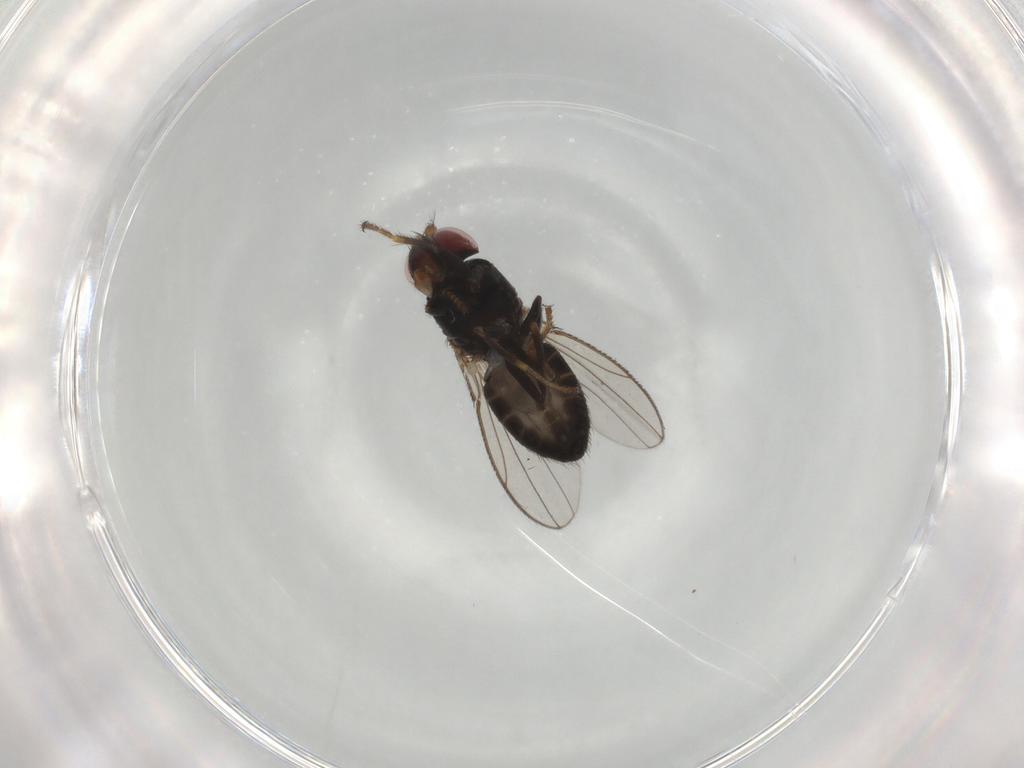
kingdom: Animalia
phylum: Arthropoda
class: Insecta
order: Diptera
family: Ephydridae
